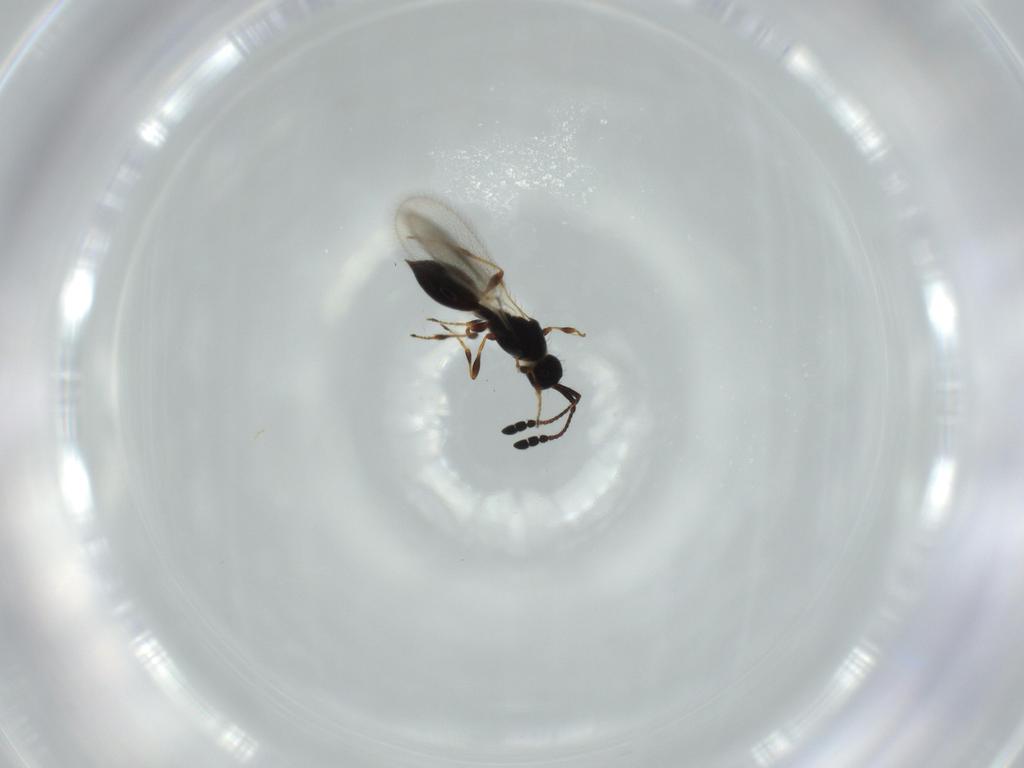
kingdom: Animalia
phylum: Arthropoda
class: Insecta
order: Hymenoptera
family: Diapriidae
